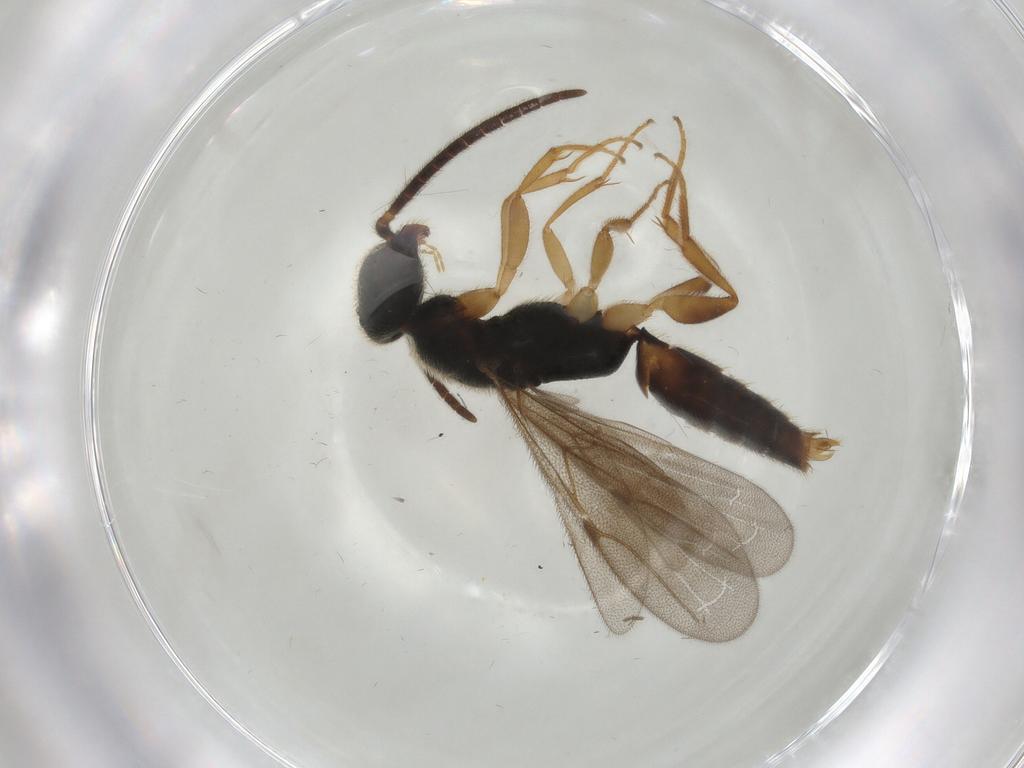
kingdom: Animalia
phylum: Arthropoda
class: Insecta
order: Hymenoptera
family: Bethylidae
